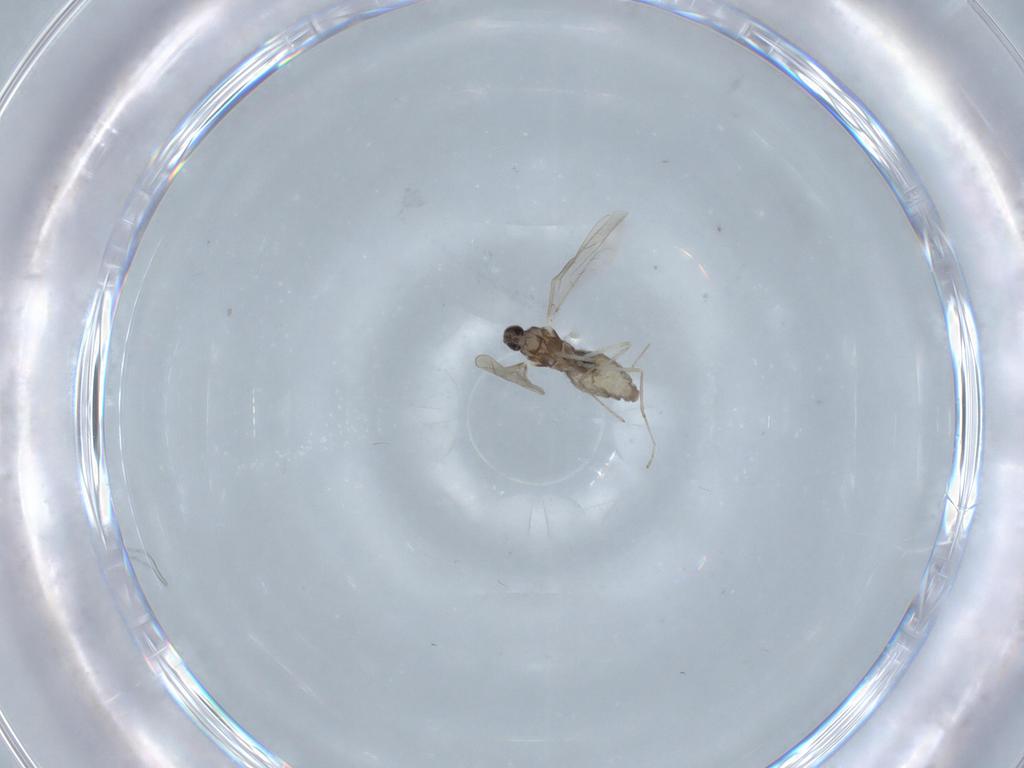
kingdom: Animalia
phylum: Arthropoda
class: Insecta
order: Diptera
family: Cecidomyiidae
